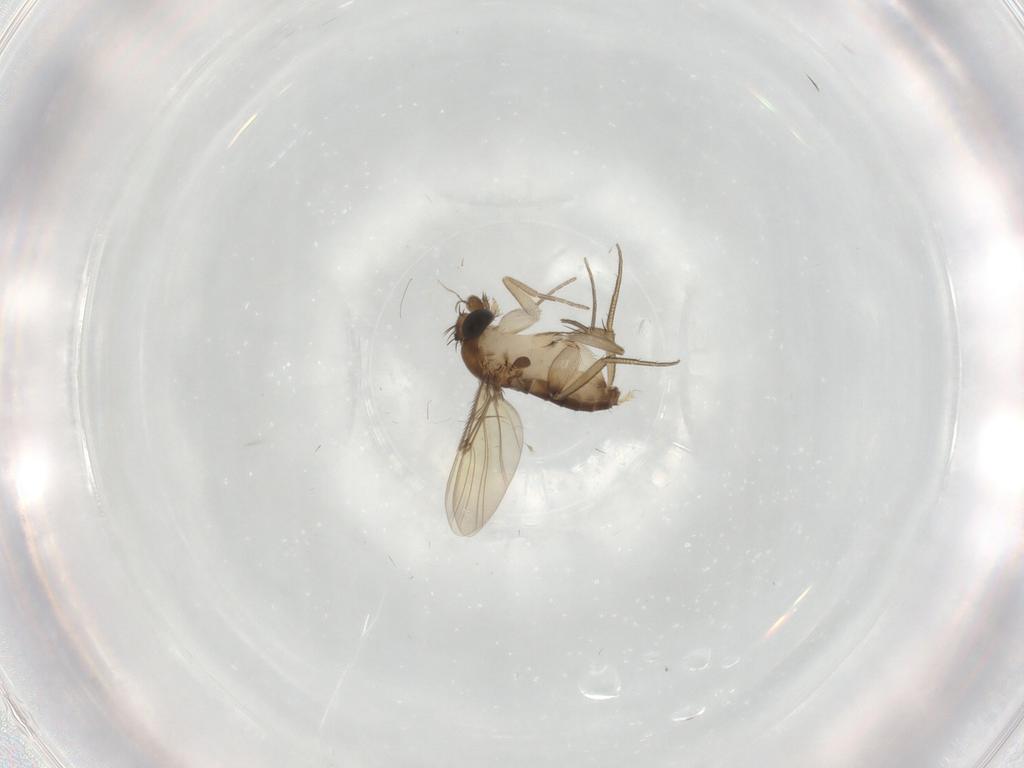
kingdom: Animalia
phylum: Arthropoda
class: Insecta
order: Diptera
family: Phoridae
